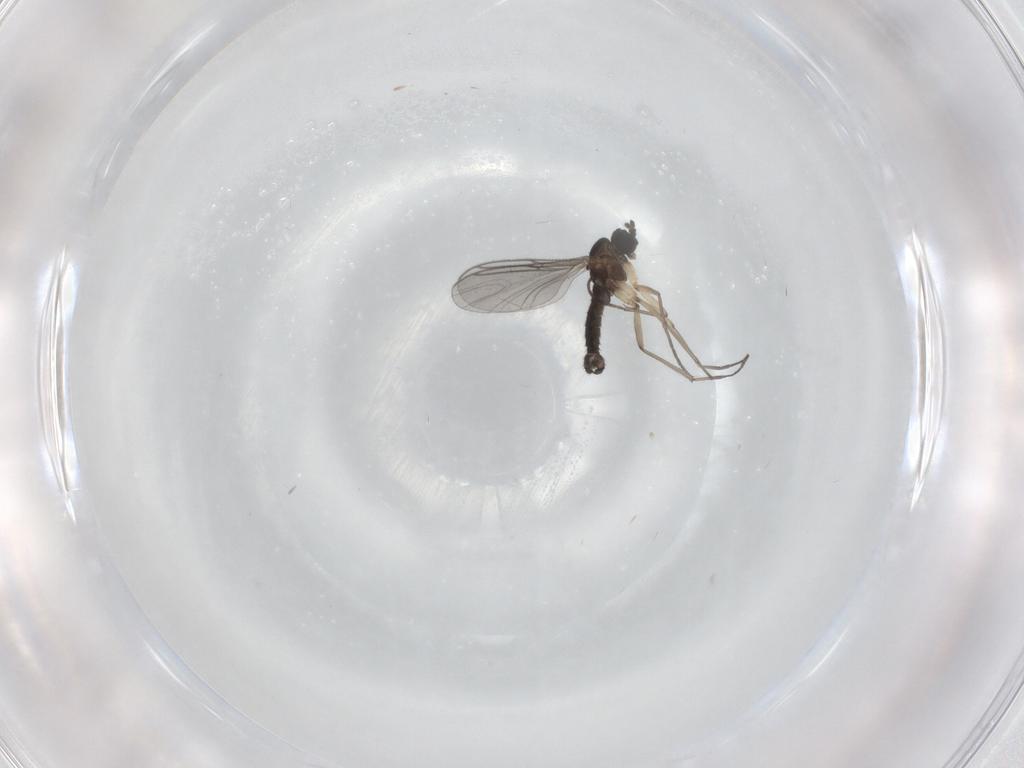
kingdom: Animalia
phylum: Arthropoda
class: Insecta
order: Diptera
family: Sciaridae
